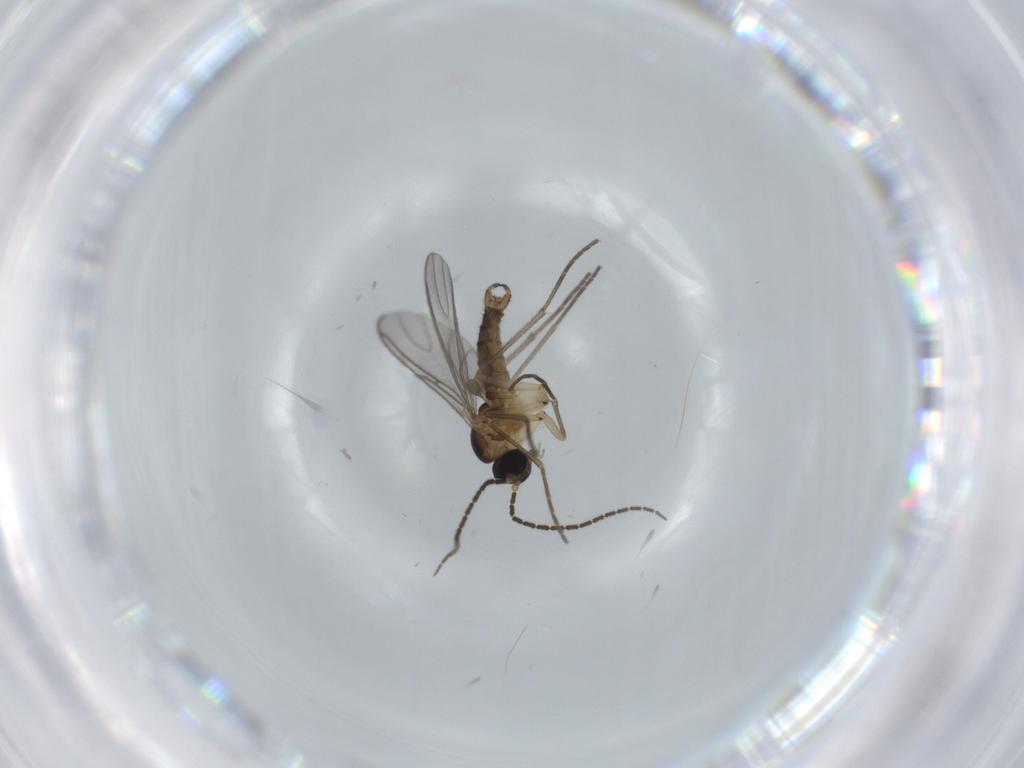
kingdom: Animalia
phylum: Arthropoda
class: Insecta
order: Diptera
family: Sciaridae
